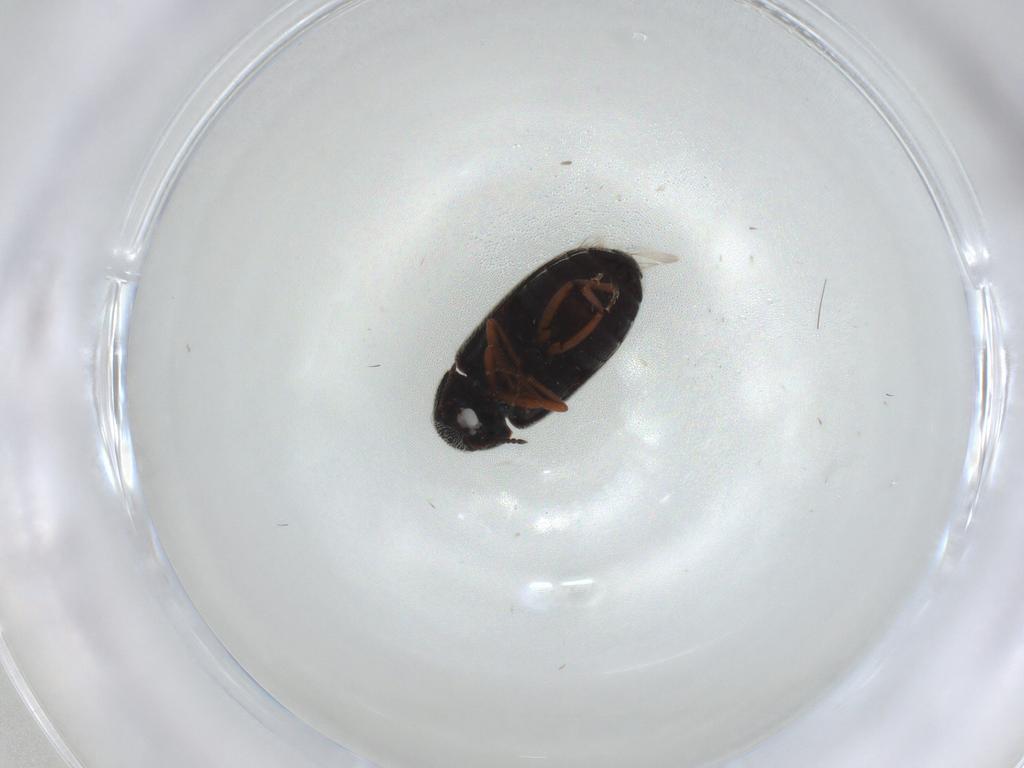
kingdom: Animalia
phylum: Arthropoda
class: Insecta
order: Coleoptera
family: Rhadalidae
